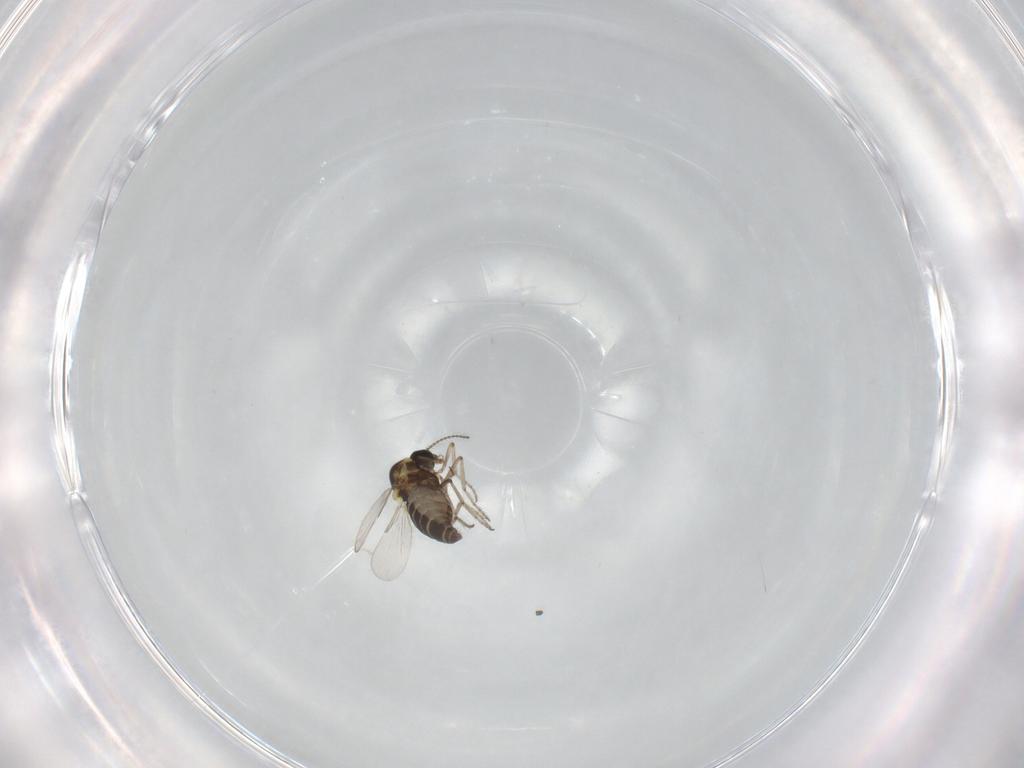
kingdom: Animalia
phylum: Arthropoda
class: Insecta
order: Diptera
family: Ceratopogonidae
